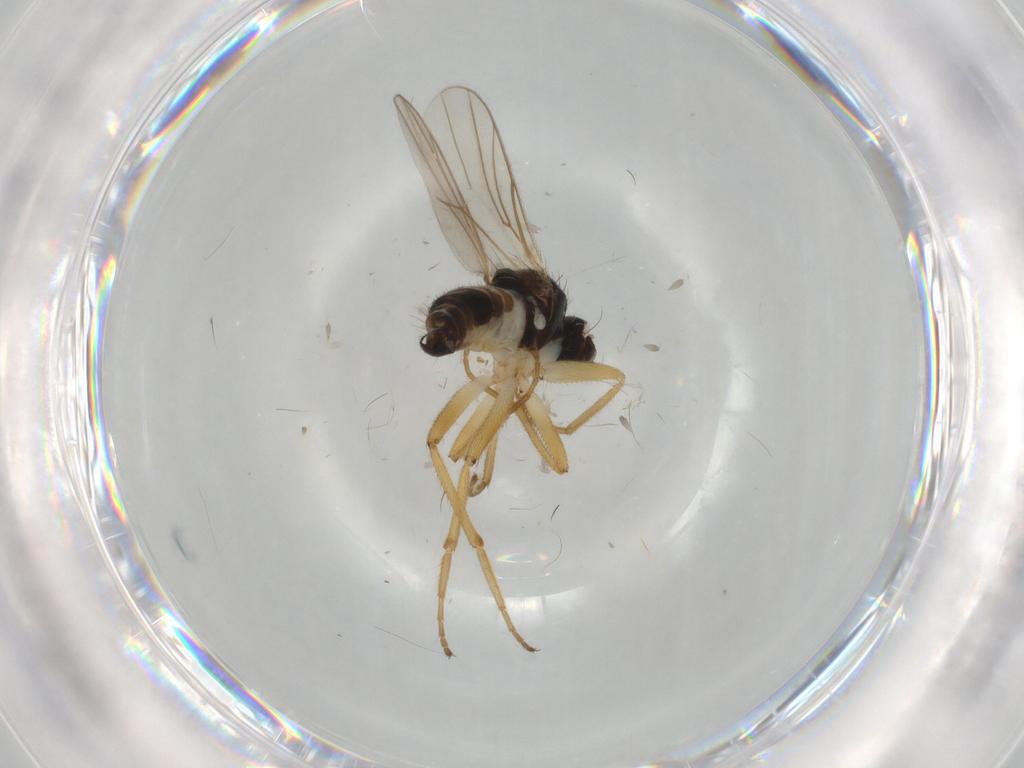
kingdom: Animalia
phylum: Arthropoda
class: Insecta
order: Diptera
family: Hybotidae
